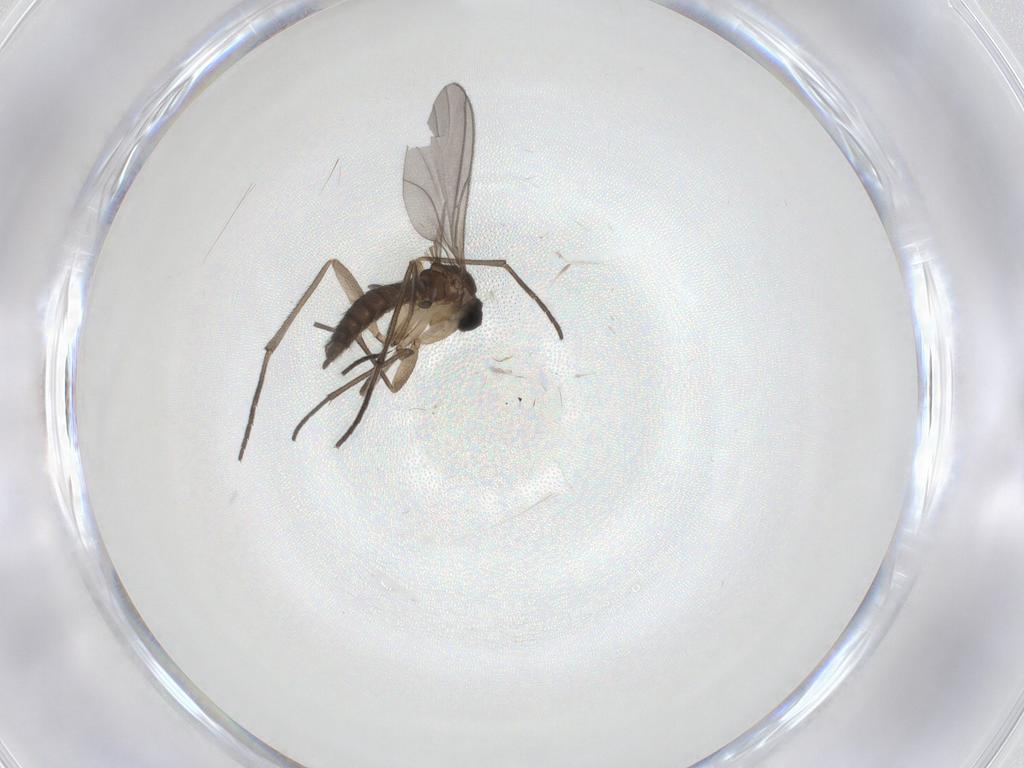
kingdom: Animalia
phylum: Arthropoda
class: Insecta
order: Diptera
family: Sciaridae
